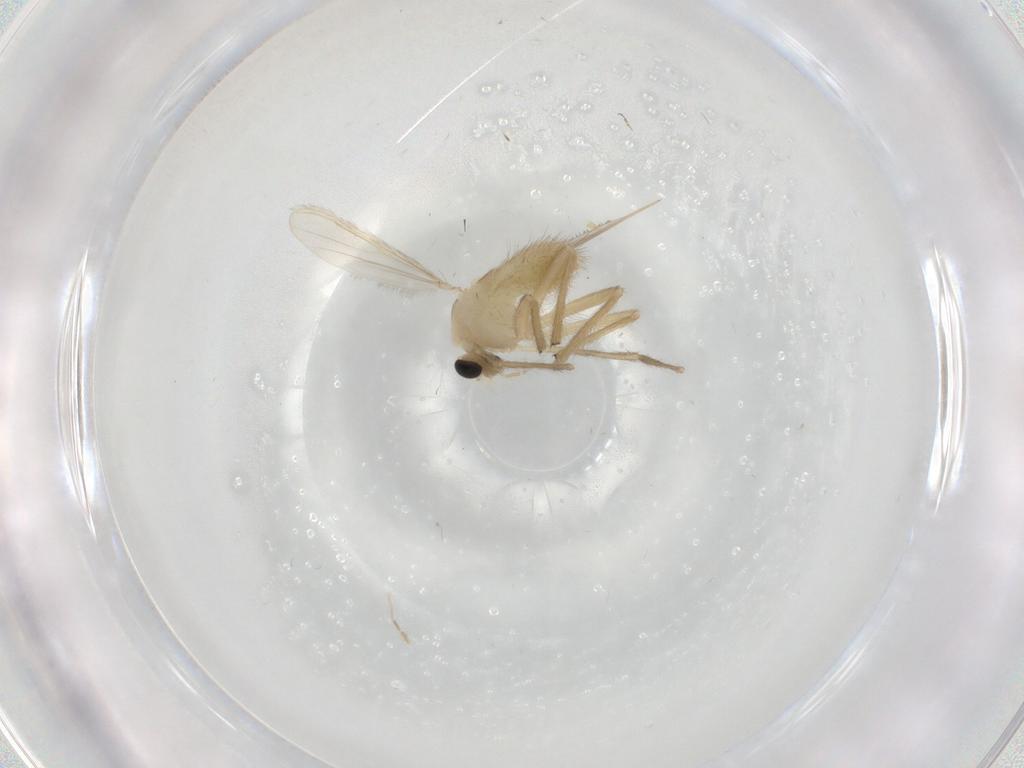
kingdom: Animalia
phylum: Arthropoda
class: Insecta
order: Diptera
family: Chironomidae
